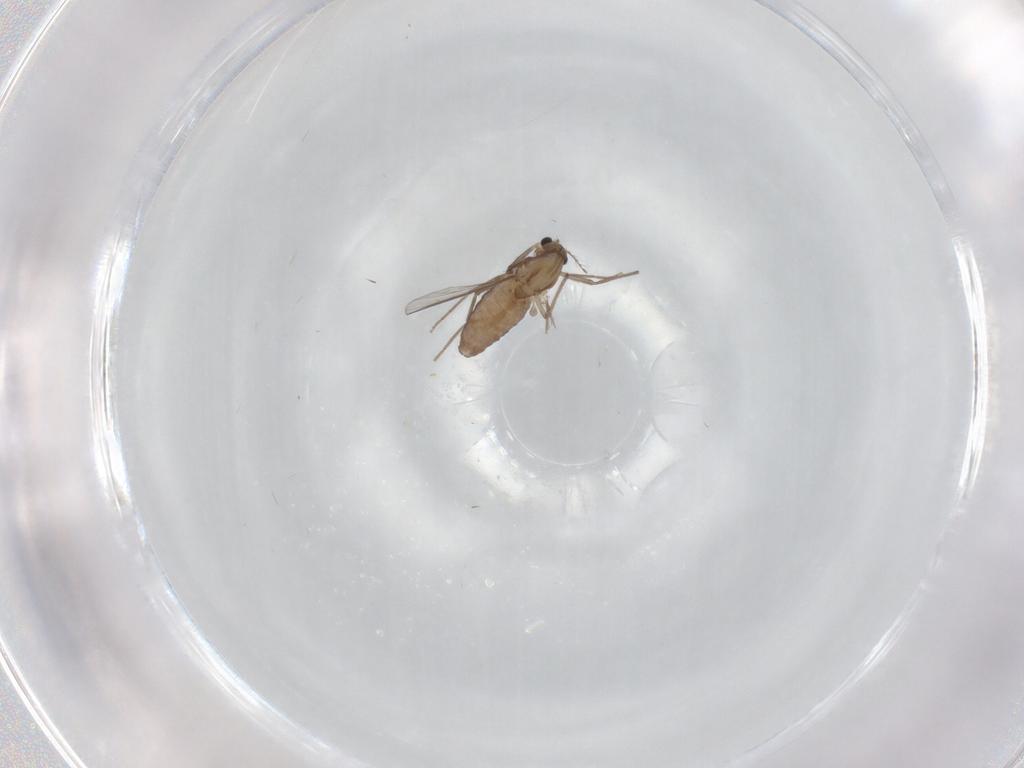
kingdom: Animalia
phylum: Arthropoda
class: Insecta
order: Diptera
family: Chironomidae
